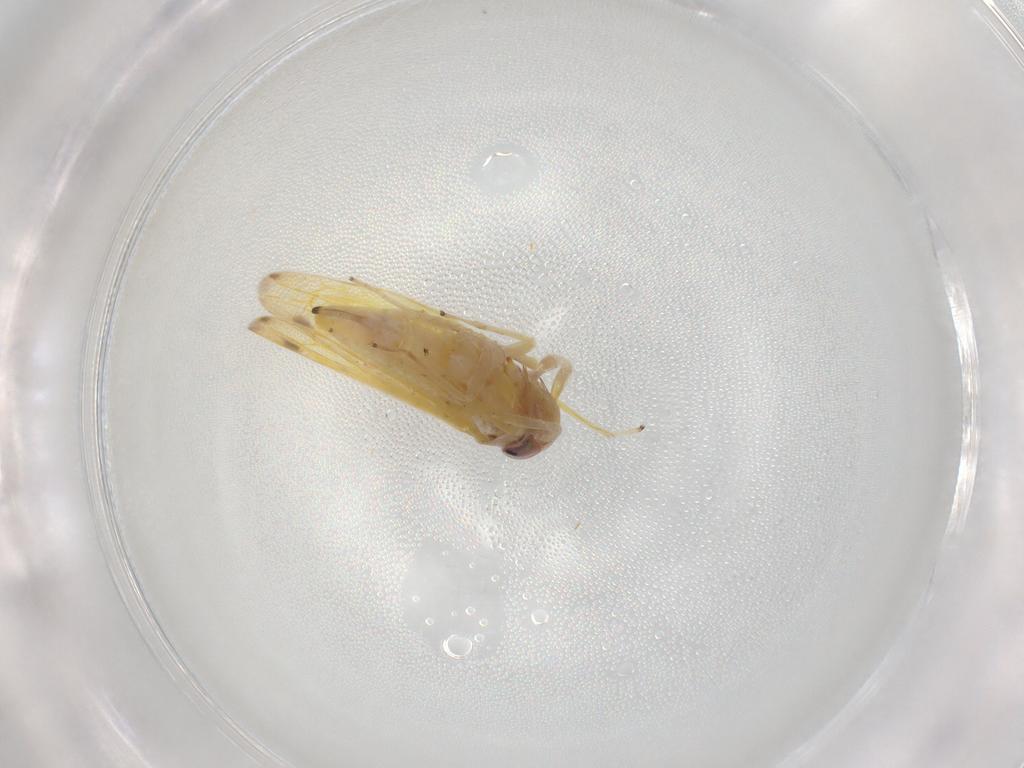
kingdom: Animalia
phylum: Arthropoda
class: Insecta
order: Hemiptera
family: Cicadellidae
